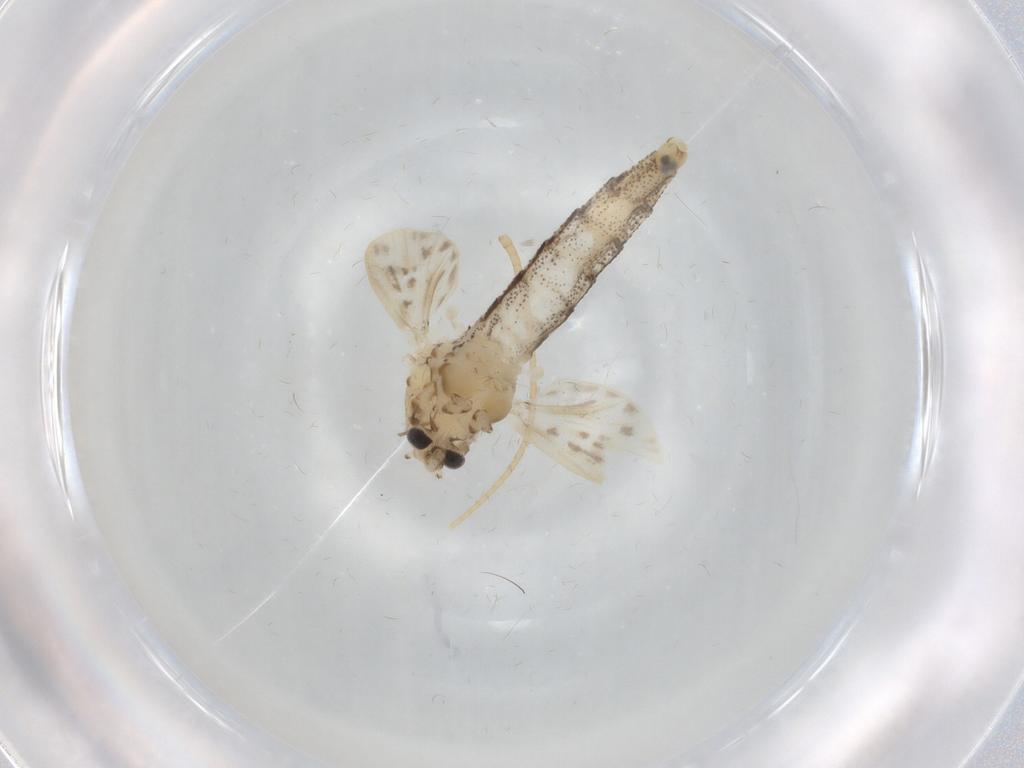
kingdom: Animalia
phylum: Arthropoda
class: Insecta
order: Diptera
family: Chaoboridae
